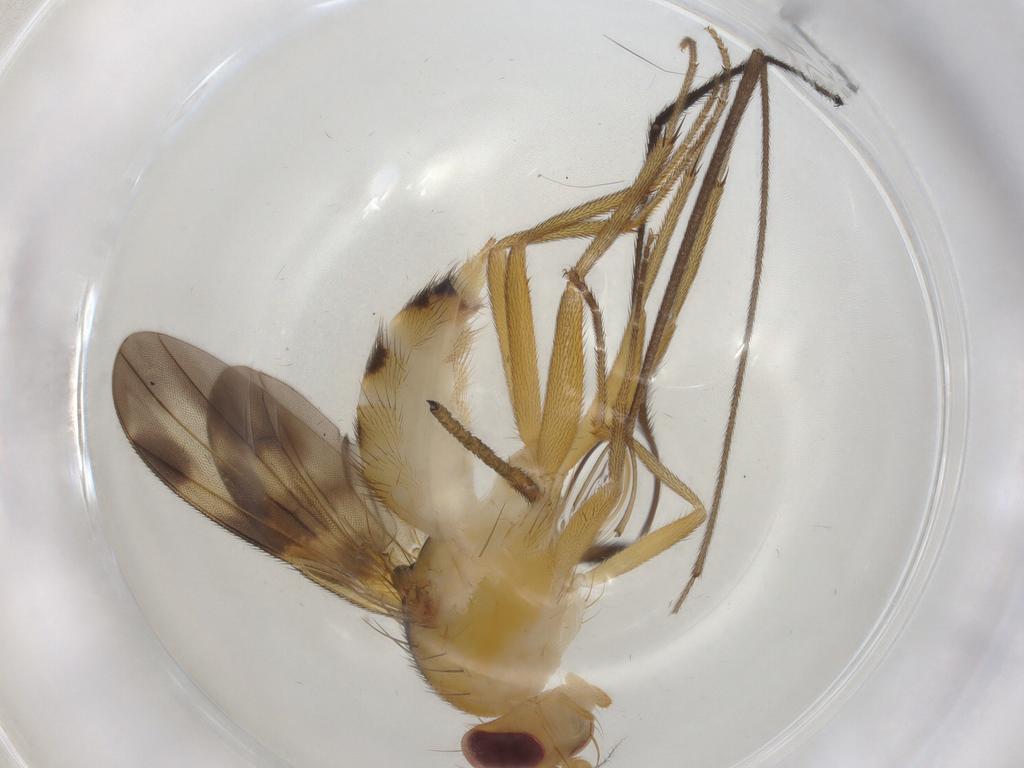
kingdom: Animalia
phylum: Arthropoda
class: Insecta
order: Diptera
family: Clusiidae
